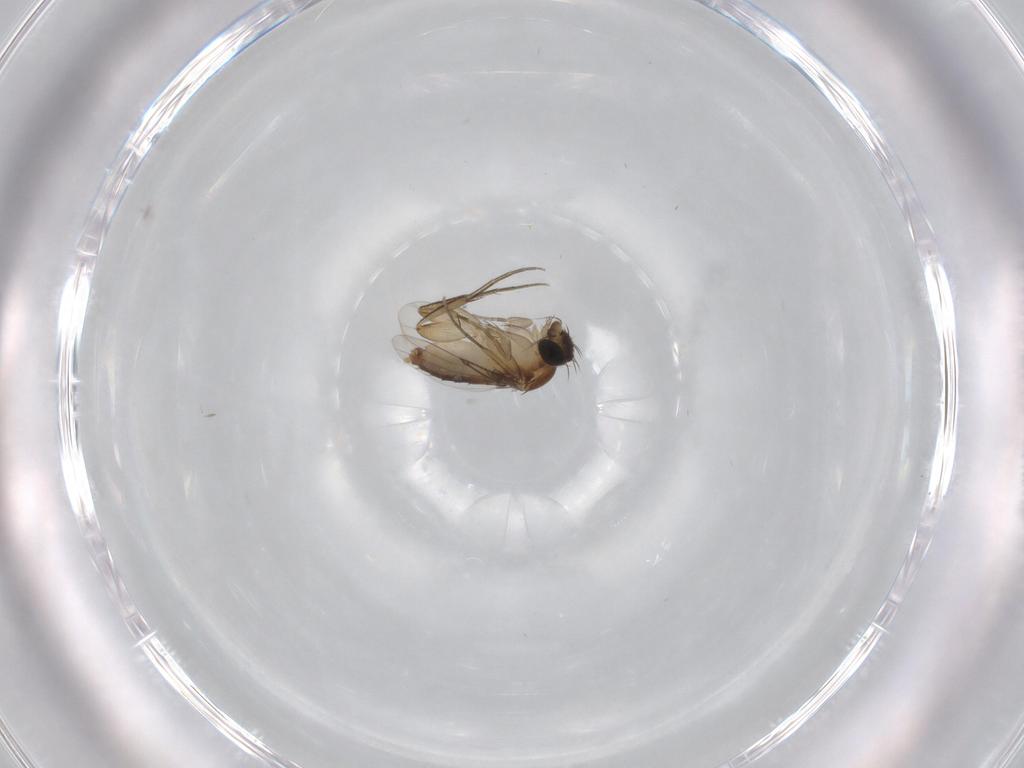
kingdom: Animalia
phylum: Arthropoda
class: Insecta
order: Diptera
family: Phoridae
